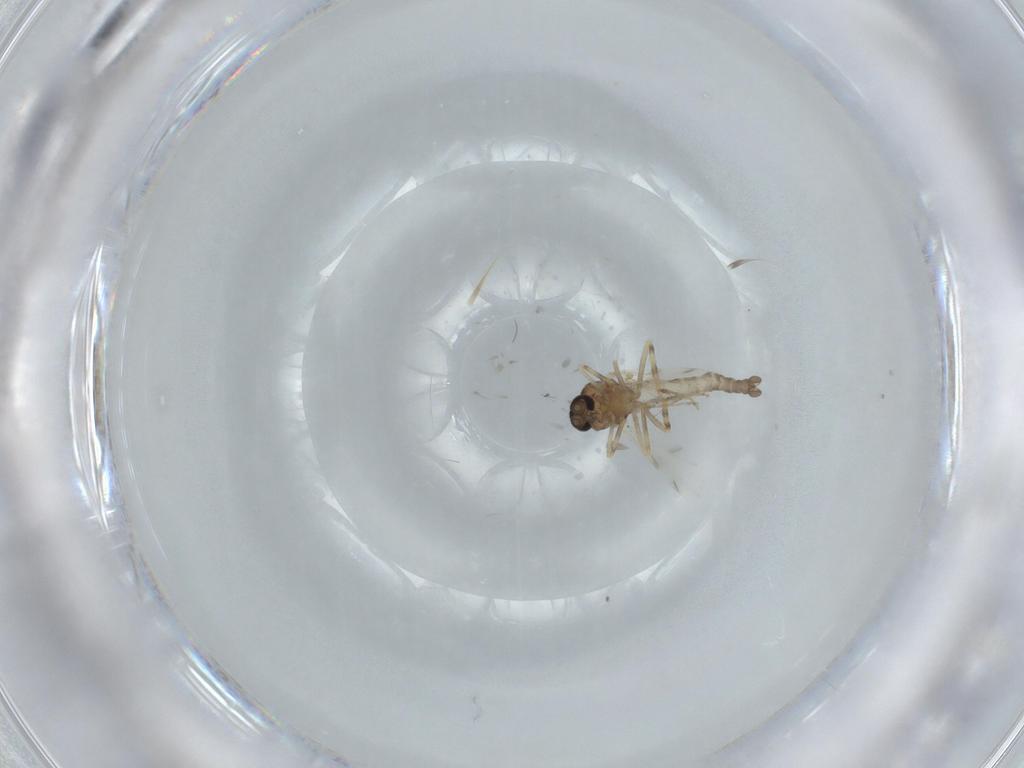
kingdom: Animalia
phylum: Arthropoda
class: Insecta
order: Diptera
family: Ceratopogonidae
